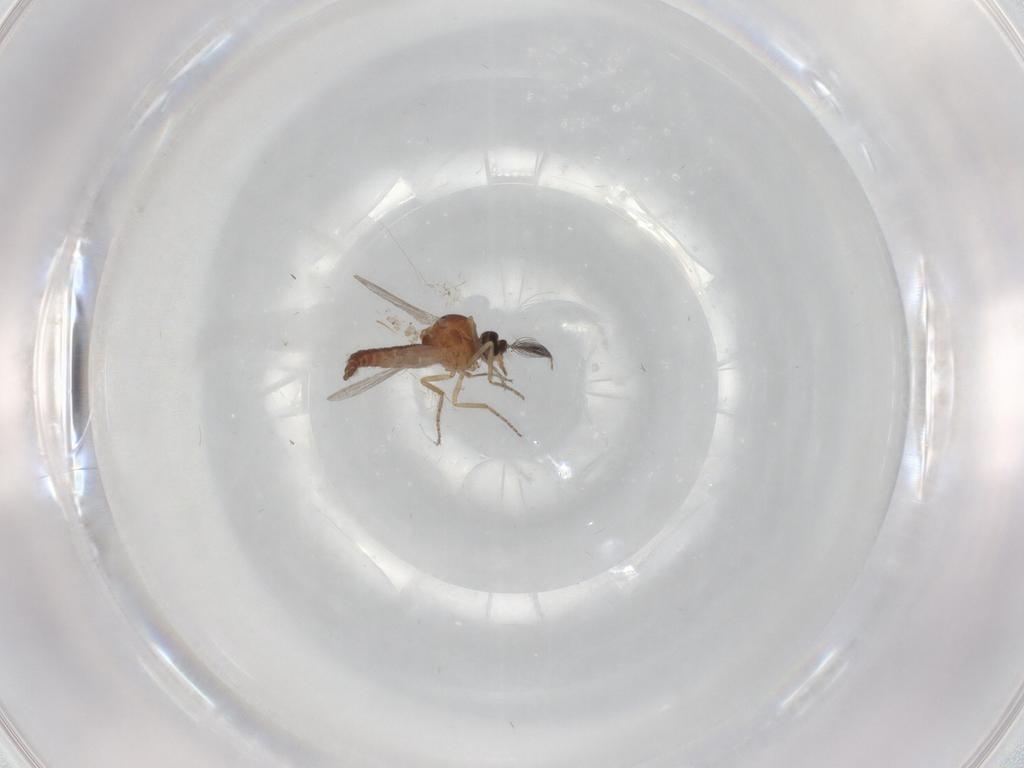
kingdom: Animalia
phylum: Arthropoda
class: Insecta
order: Diptera
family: Ceratopogonidae
